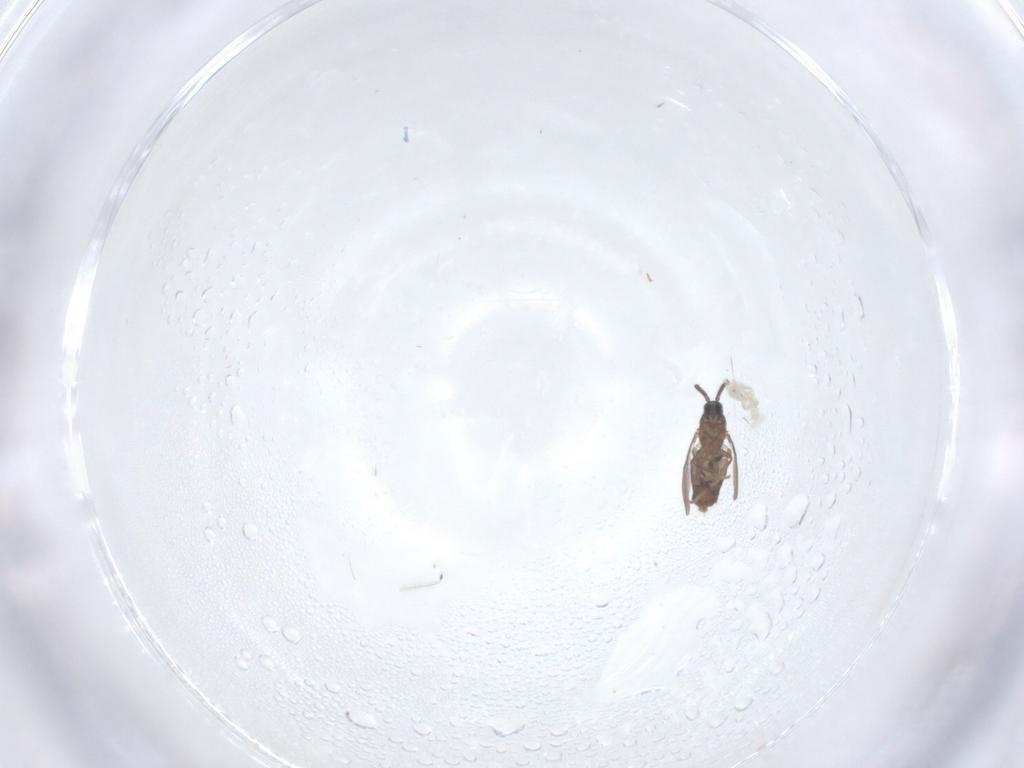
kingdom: Animalia
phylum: Arthropoda
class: Insecta
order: Diptera
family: Scatopsidae
